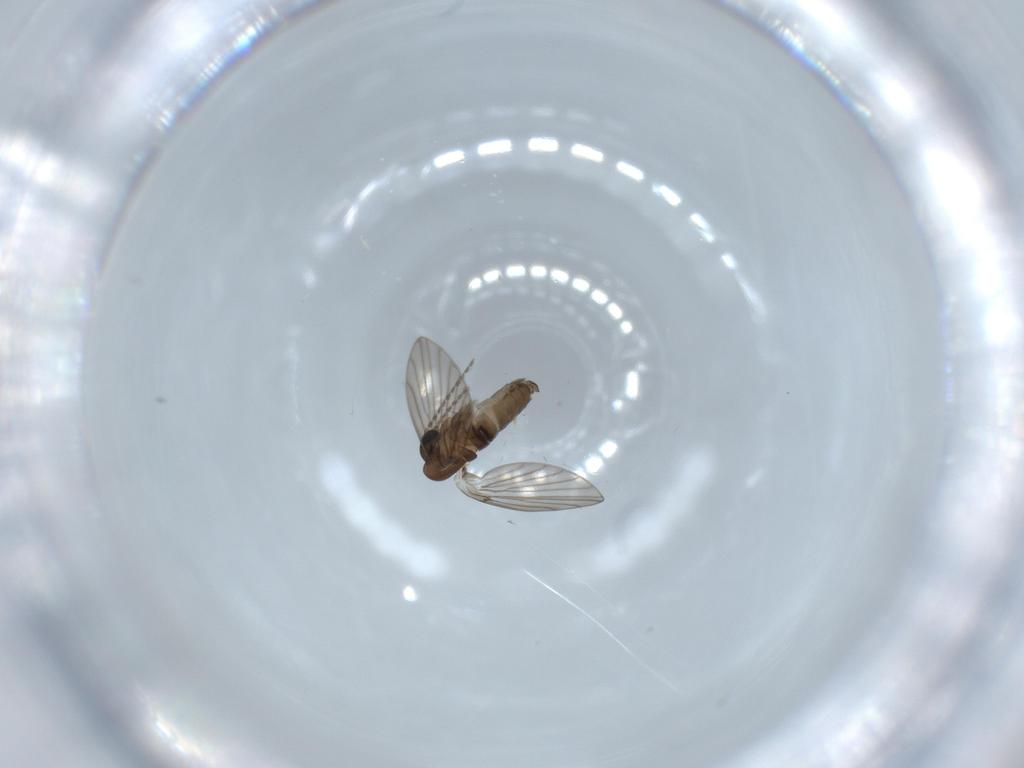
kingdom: Animalia
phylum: Arthropoda
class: Insecta
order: Diptera
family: Psychodidae
